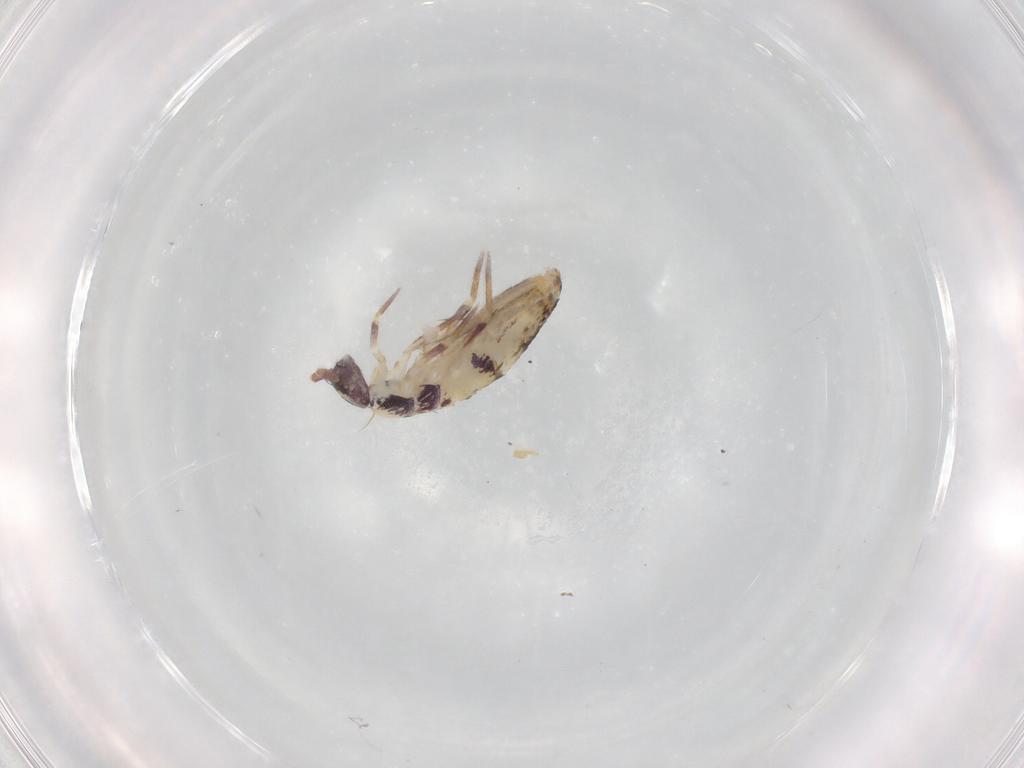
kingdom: Animalia
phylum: Arthropoda
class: Collembola
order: Entomobryomorpha
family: Entomobryidae
